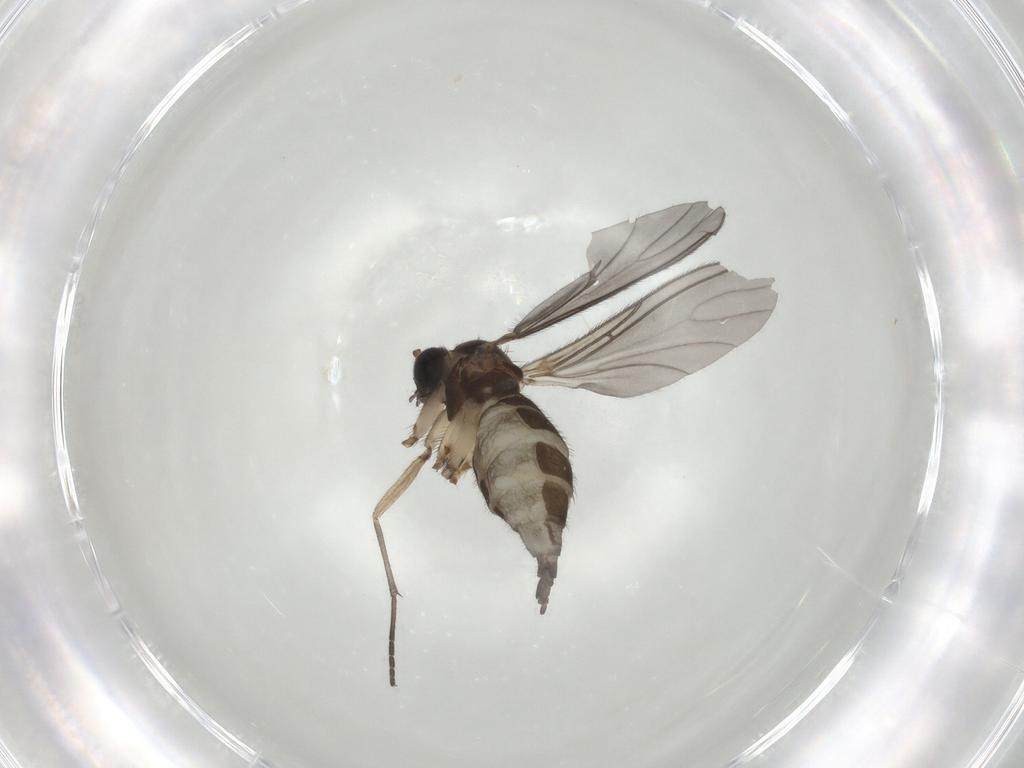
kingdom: Animalia
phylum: Arthropoda
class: Insecta
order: Diptera
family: Sciaridae
